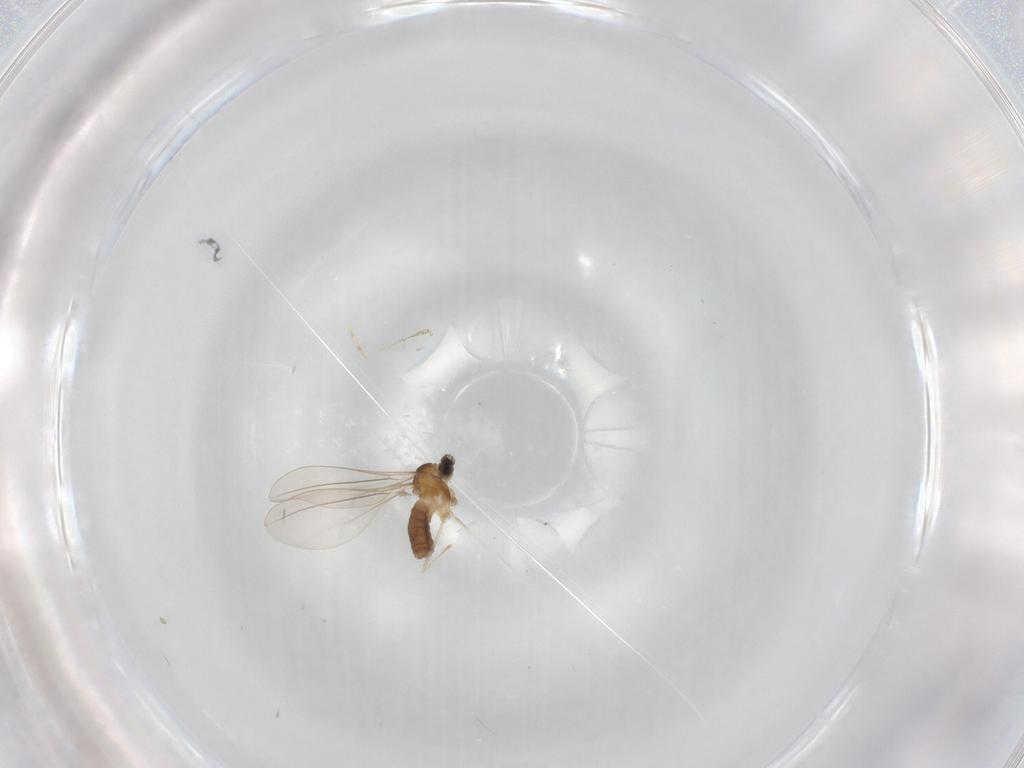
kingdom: Animalia
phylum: Arthropoda
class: Insecta
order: Diptera
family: Cecidomyiidae
